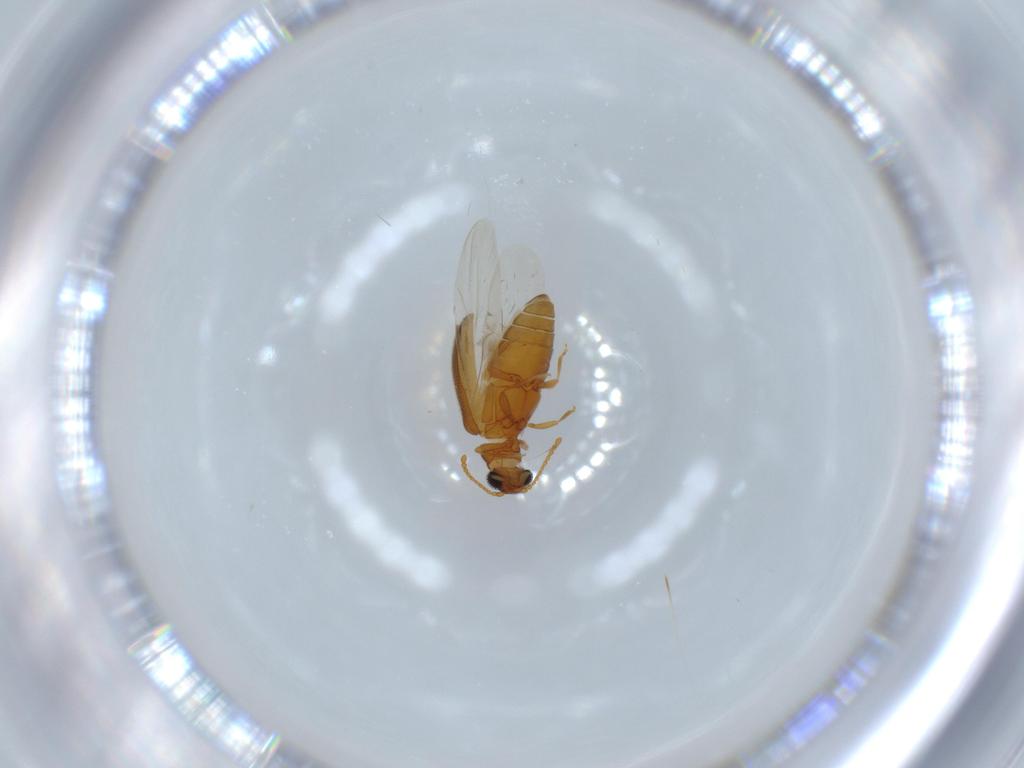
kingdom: Animalia
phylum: Arthropoda
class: Insecta
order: Coleoptera
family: Aderidae
